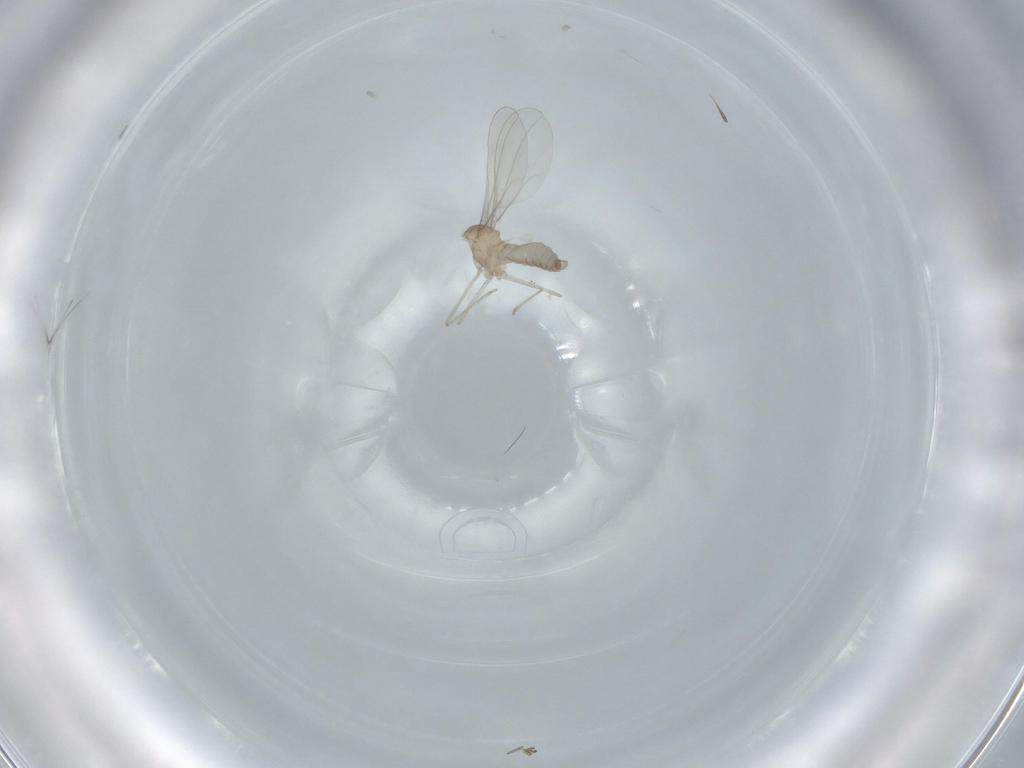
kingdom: Animalia
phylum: Arthropoda
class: Insecta
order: Diptera
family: Cecidomyiidae
